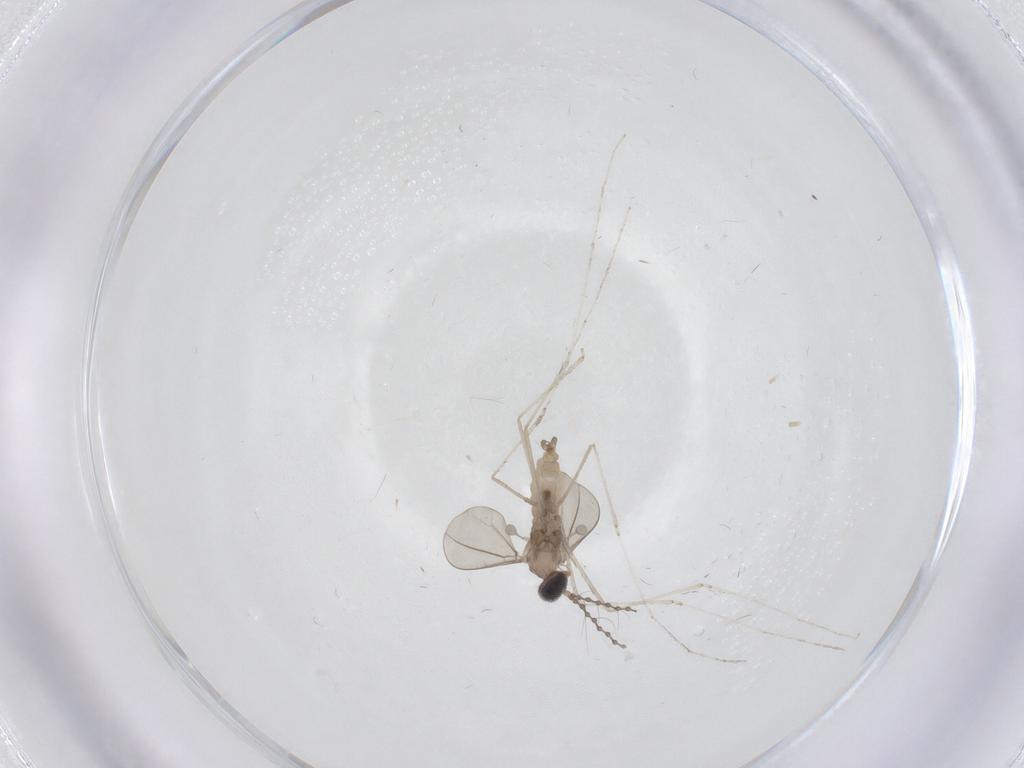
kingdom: Animalia
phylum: Arthropoda
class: Insecta
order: Diptera
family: Cecidomyiidae
